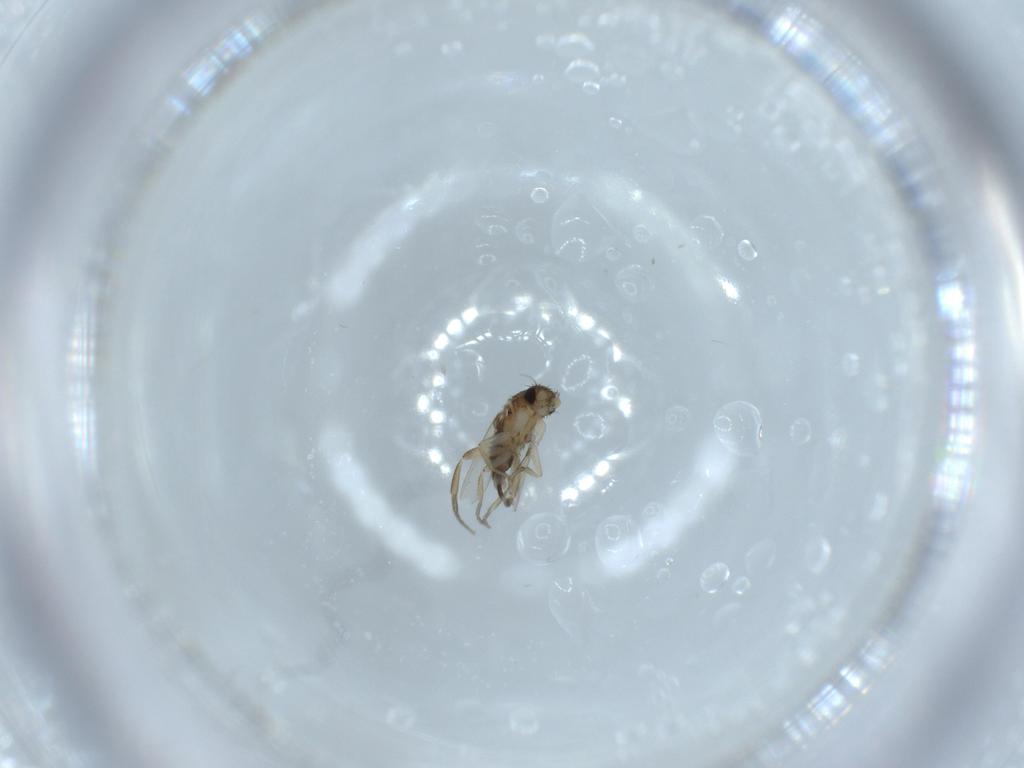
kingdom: Animalia
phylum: Arthropoda
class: Insecta
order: Diptera
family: Phoridae
